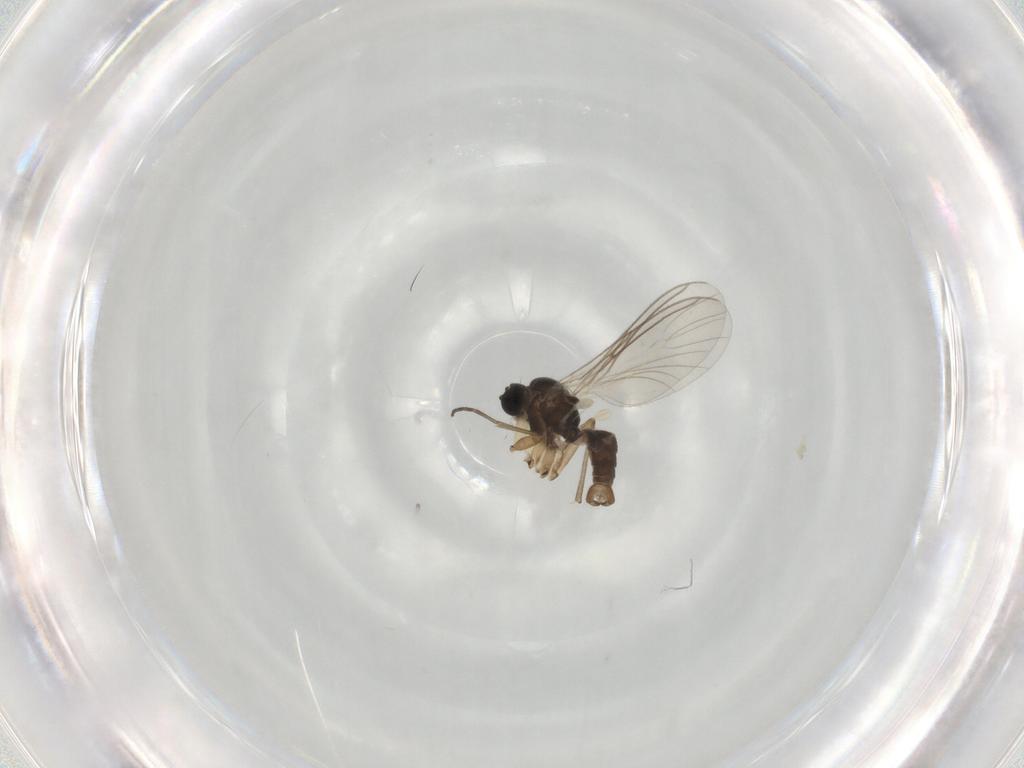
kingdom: Animalia
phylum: Arthropoda
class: Insecta
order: Diptera
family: Sciaridae
